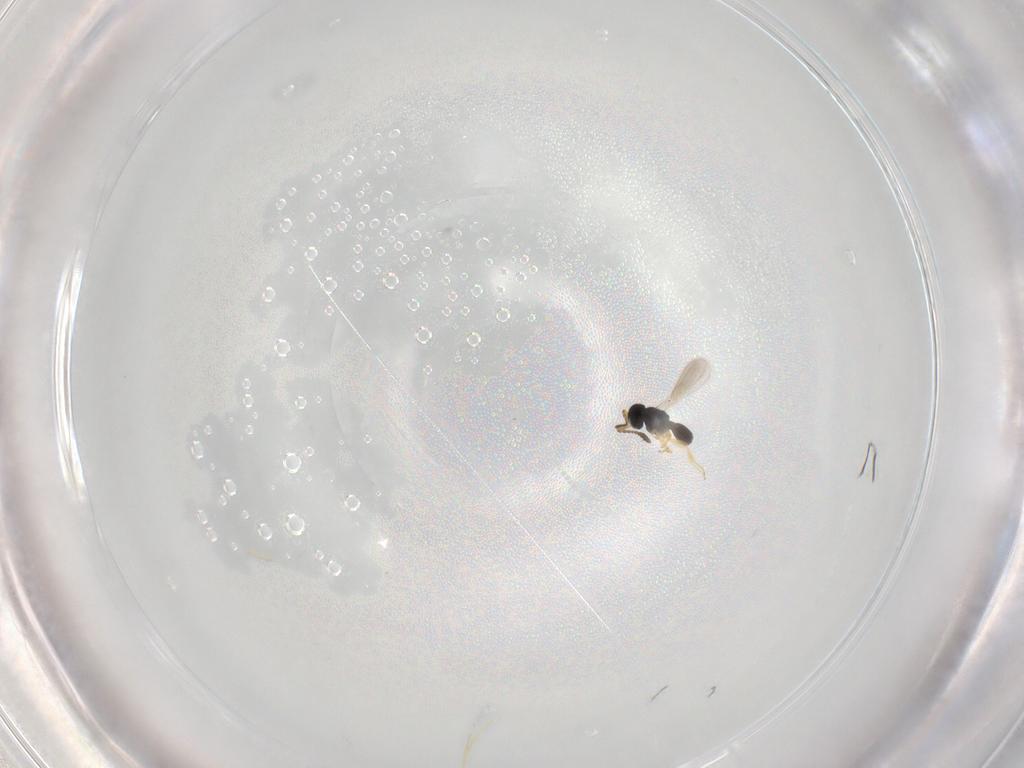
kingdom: Animalia
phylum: Arthropoda
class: Insecta
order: Hymenoptera
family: Scelionidae
